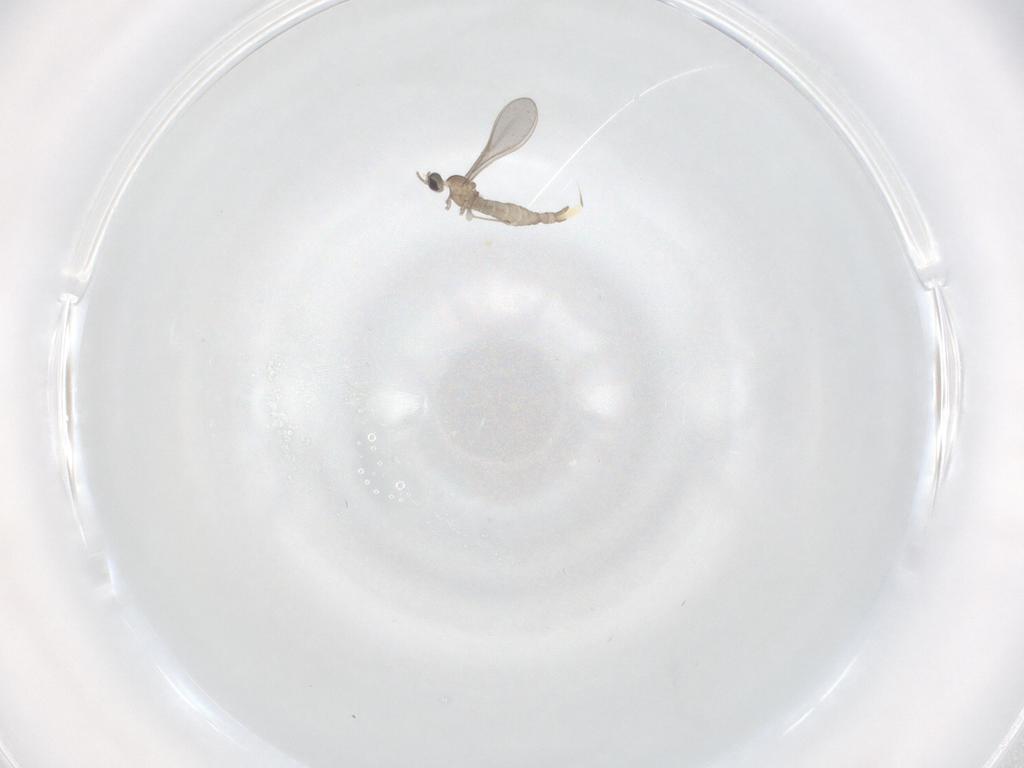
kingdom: Animalia
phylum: Arthropoda
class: Insecta
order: Diptera
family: Cecidomyiidae
